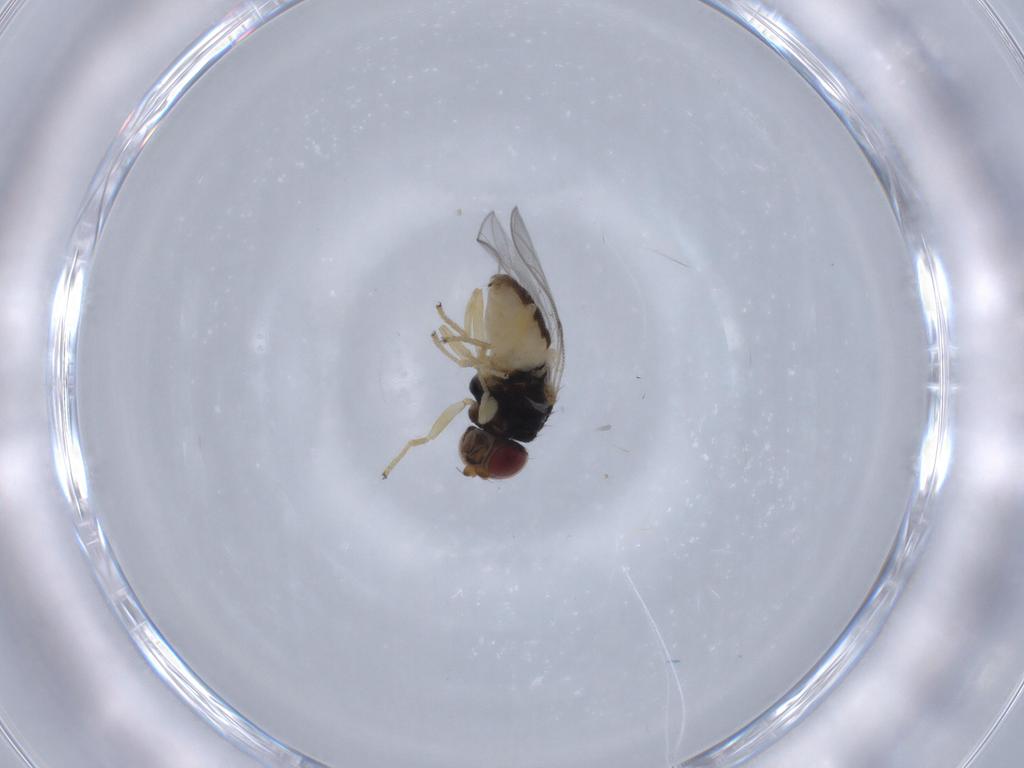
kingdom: Animalia
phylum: Arthropoda
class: Insecta
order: Diptera
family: Chloropidae
